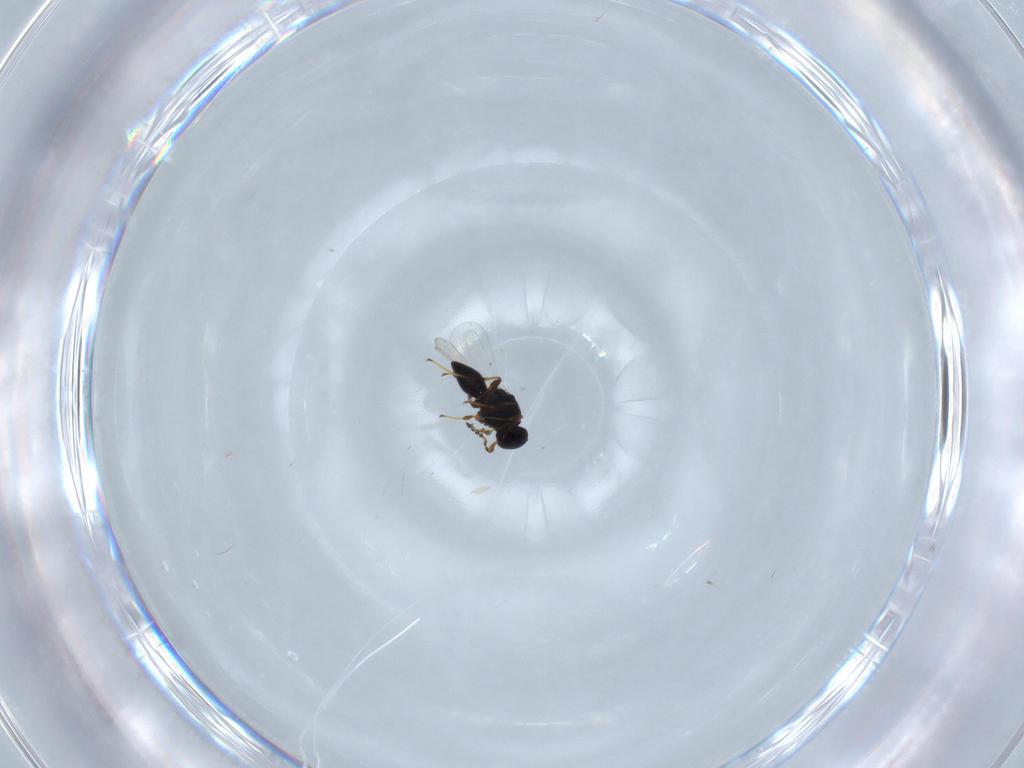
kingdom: Animalia
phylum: Arthropoda
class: Insecta
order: Hymenoptera
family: Platygastridae
